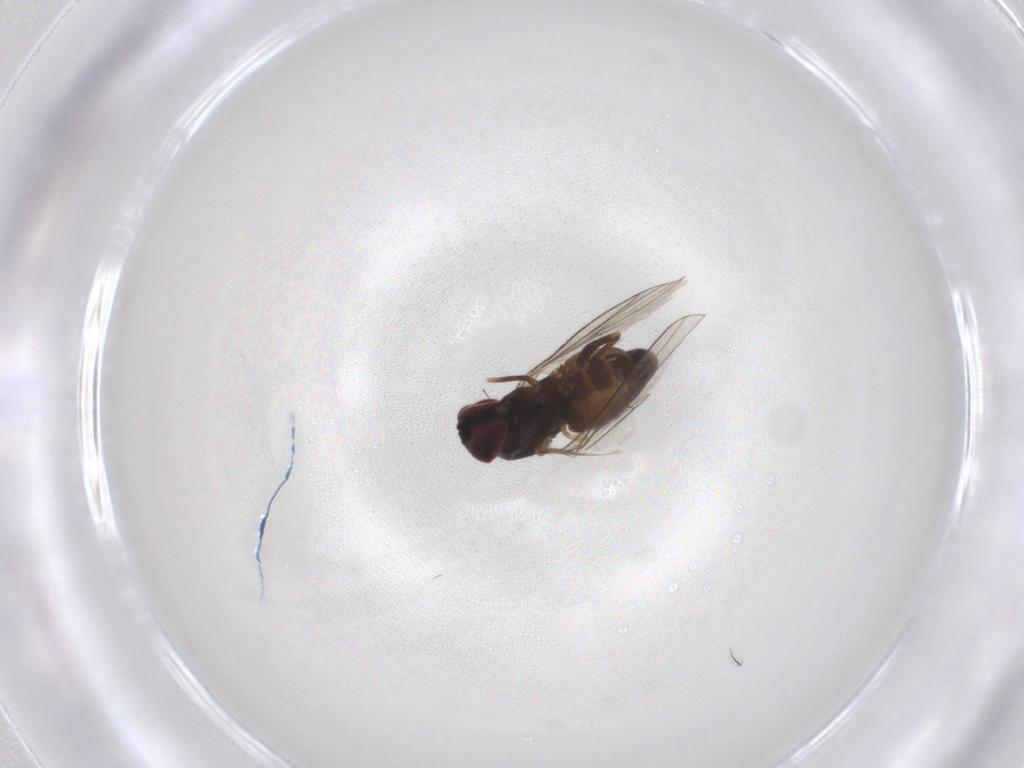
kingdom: Animalia
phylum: Arthropoda
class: Insecta
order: Diptera
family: Dolichopodidae
